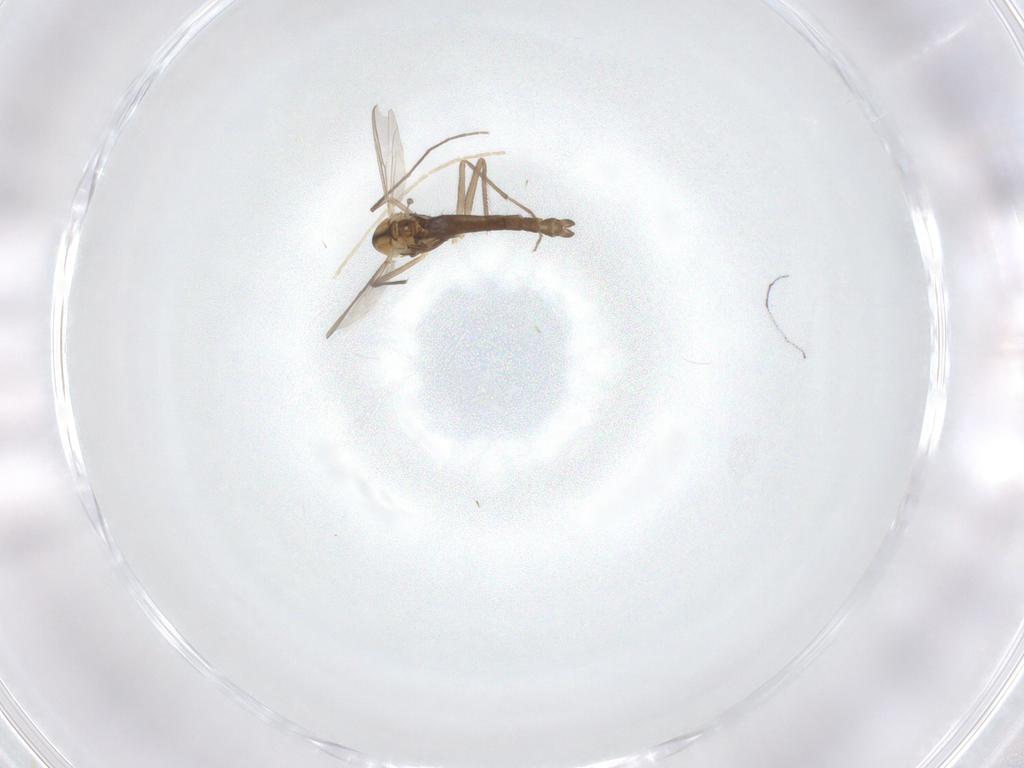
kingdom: Animalia
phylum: Arthropoda
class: Insecta
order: Diptera
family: Chironomidae
